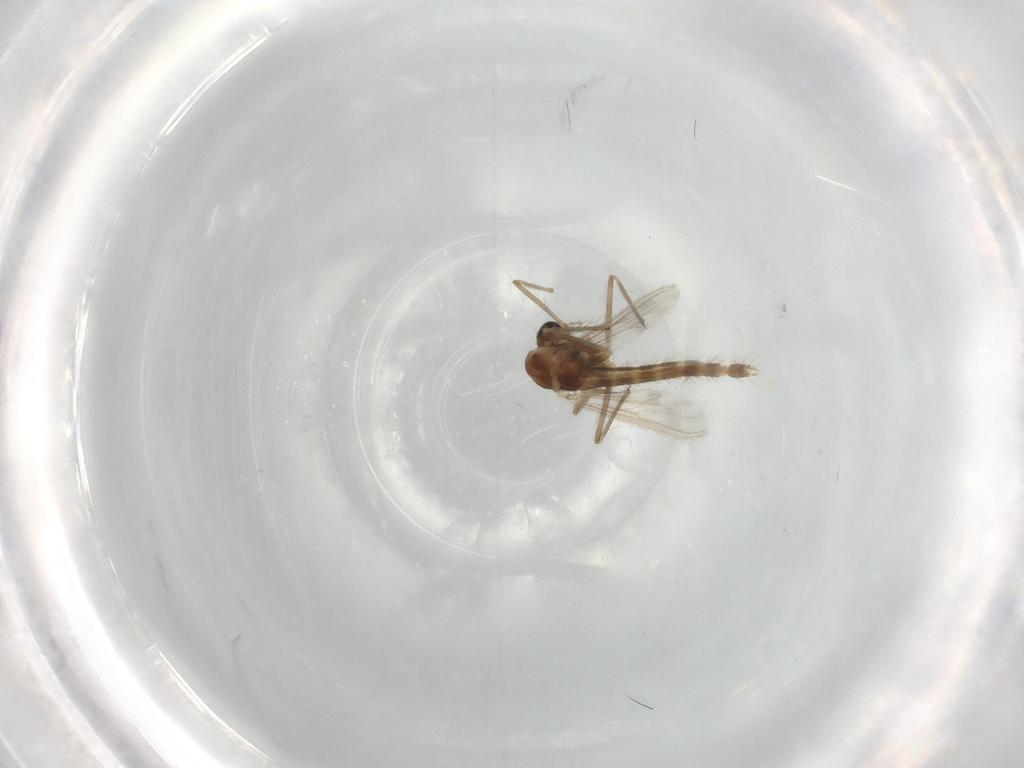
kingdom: Animalia
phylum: Arthropoda
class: Insecta
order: Diptera
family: Chironomidae
